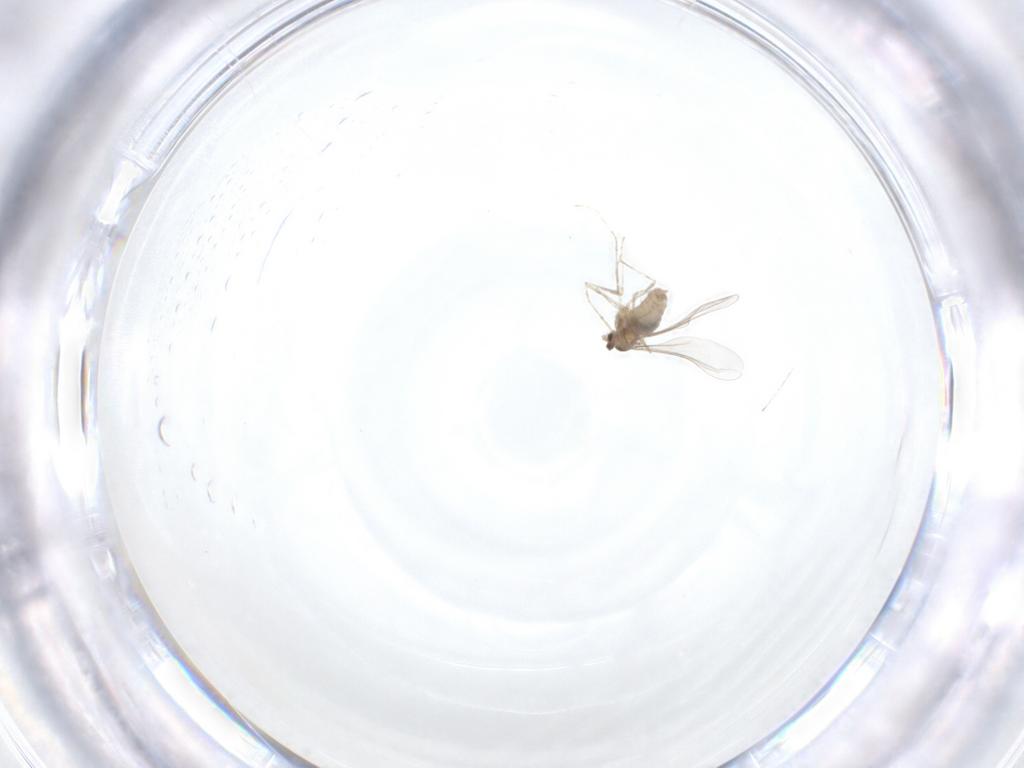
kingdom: Animalia
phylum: Arthropoda
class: Insecta
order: Diptera
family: Cecidomyiidae
